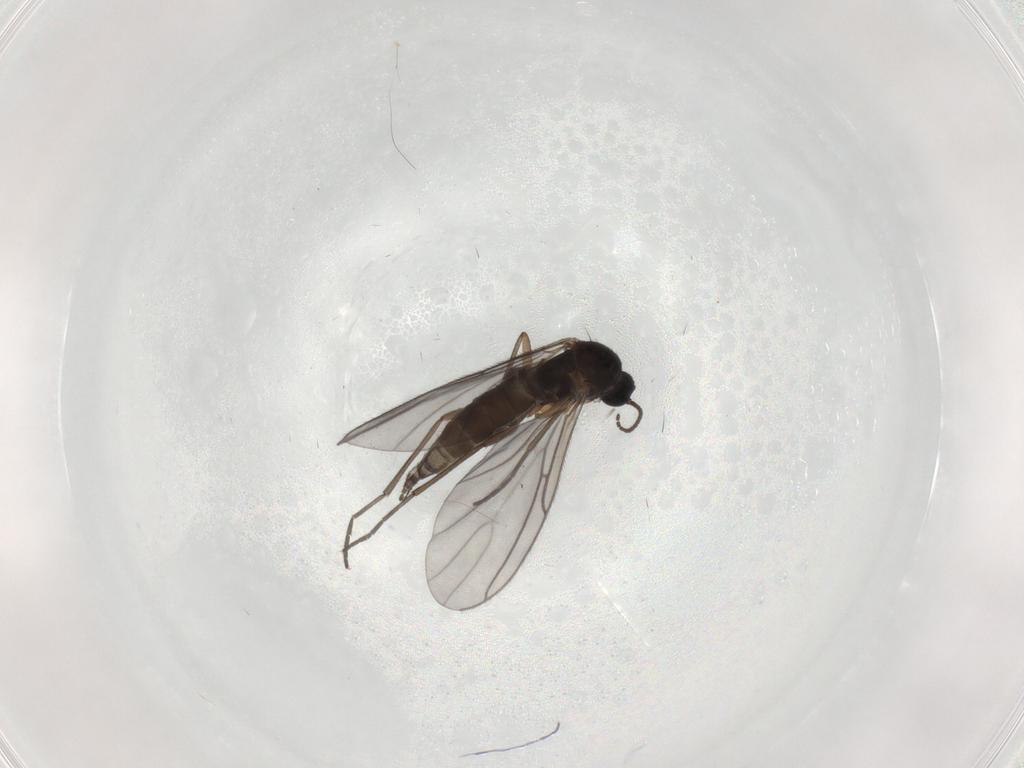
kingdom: Animalia
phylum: Arthropoda
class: Insecta
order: Diptera
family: Sciaridae
